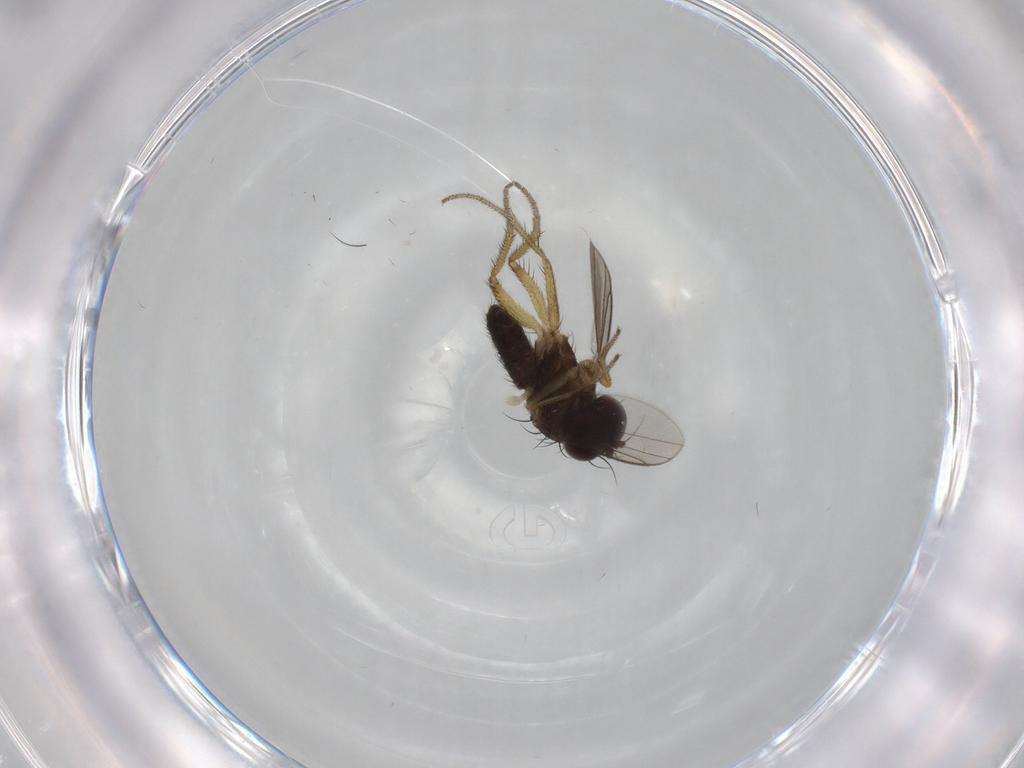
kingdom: Animalia
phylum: Arthropoda
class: Insecta
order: Diptera
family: Dolichopodidae
